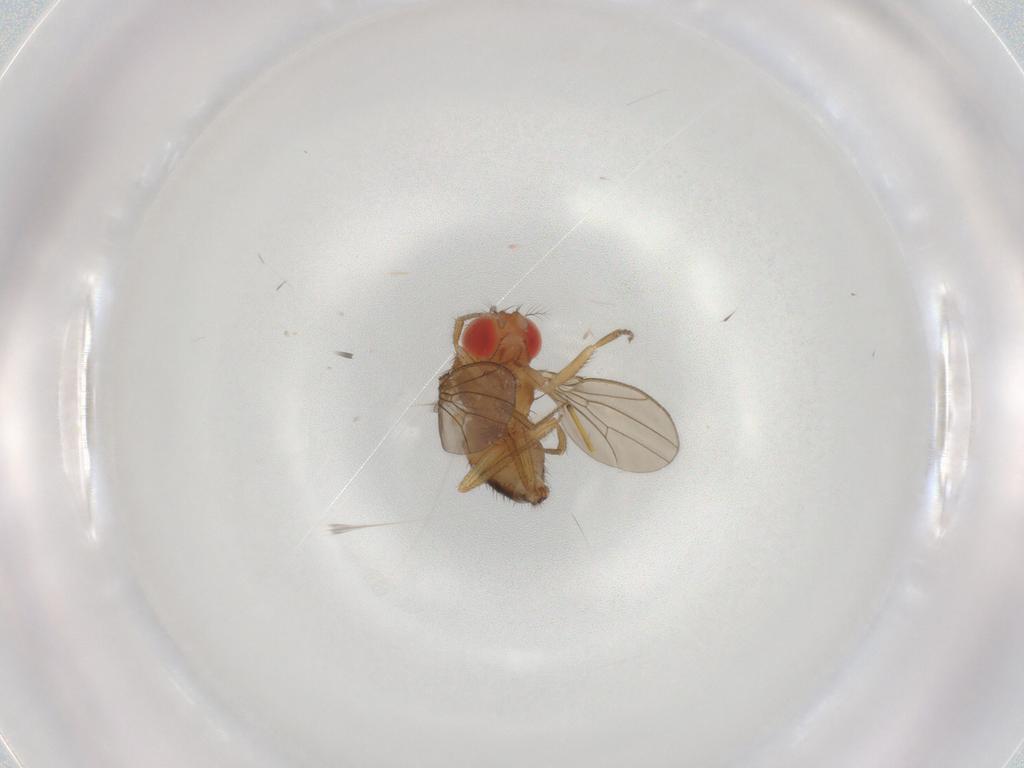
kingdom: Animalia
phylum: Arthropoda
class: Insecta
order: Diptera
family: Drosophilidae
